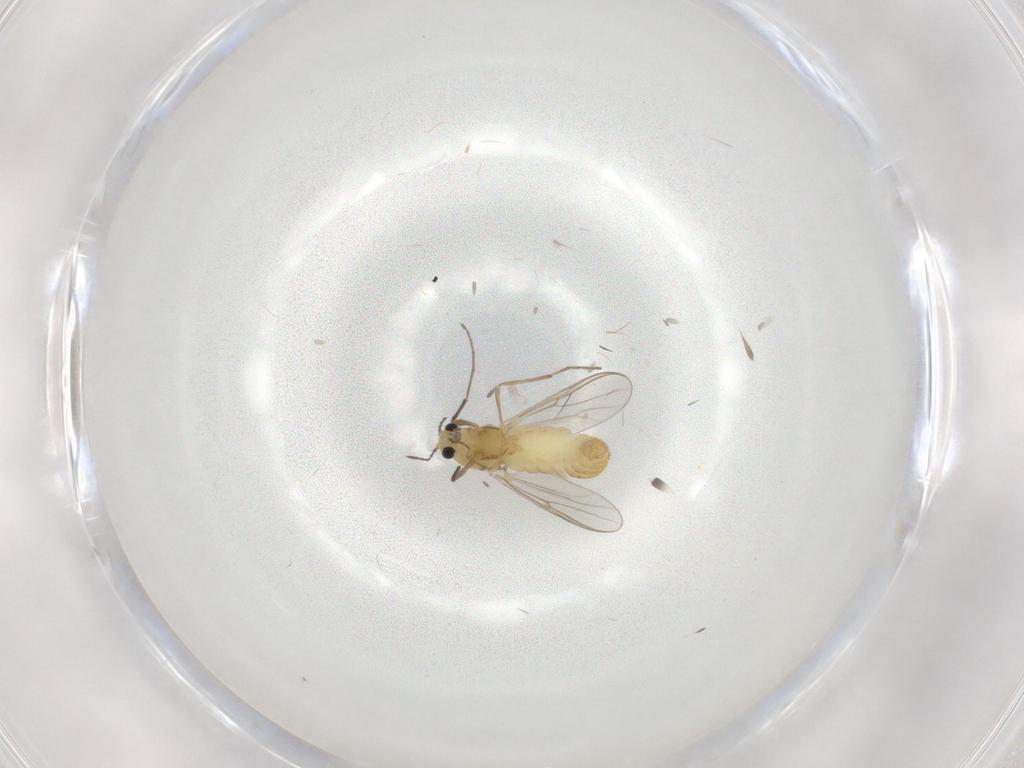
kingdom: Animalia
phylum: Arthropoda
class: Insecta
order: Diptera
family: Chironomidae
